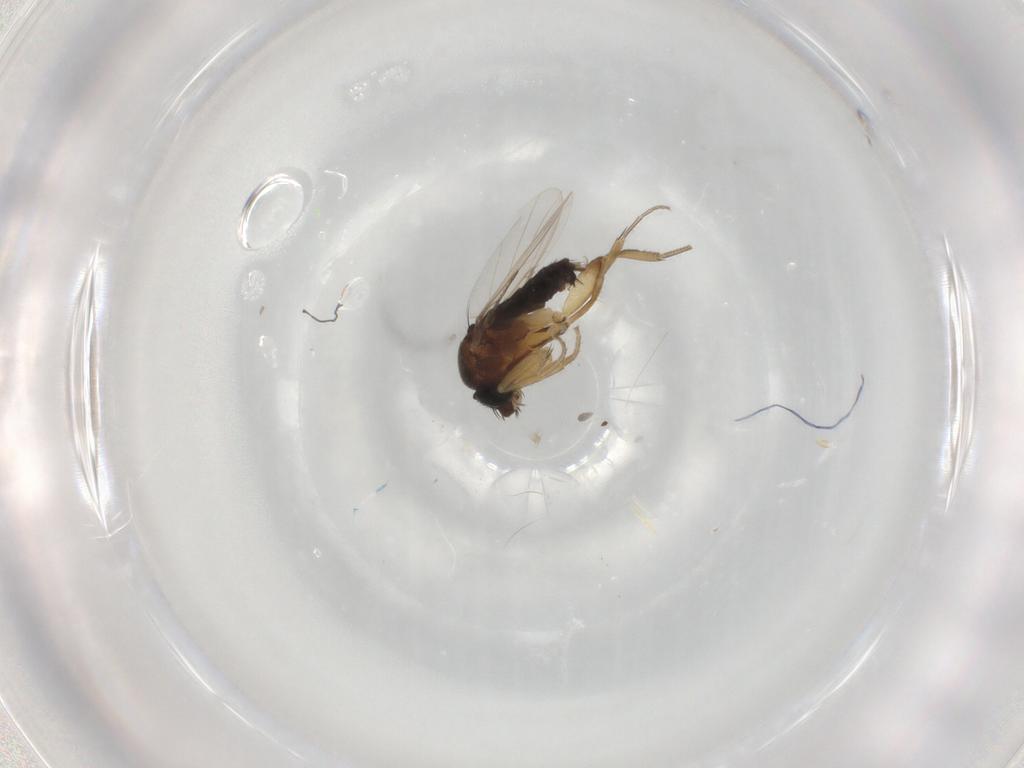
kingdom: Animalia
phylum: Arthropoda
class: Insecta
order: Diptera
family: Phoridae
